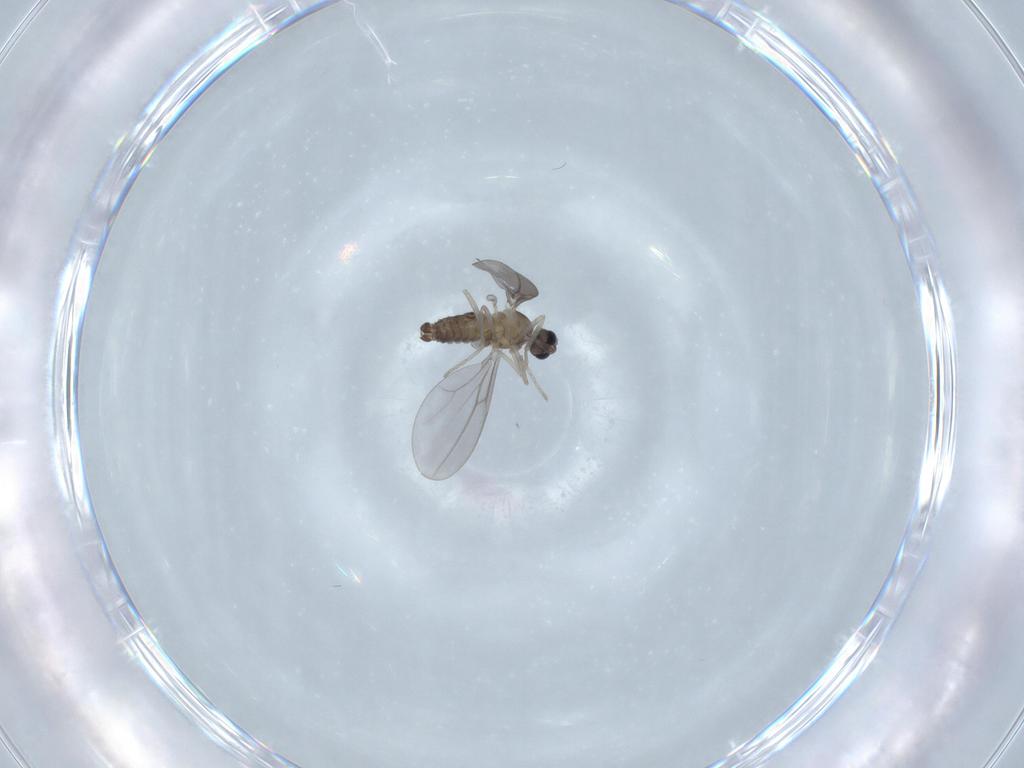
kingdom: Animalia
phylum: Arthropoda
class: Insecta
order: Diptera
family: Cecidomyiidae
